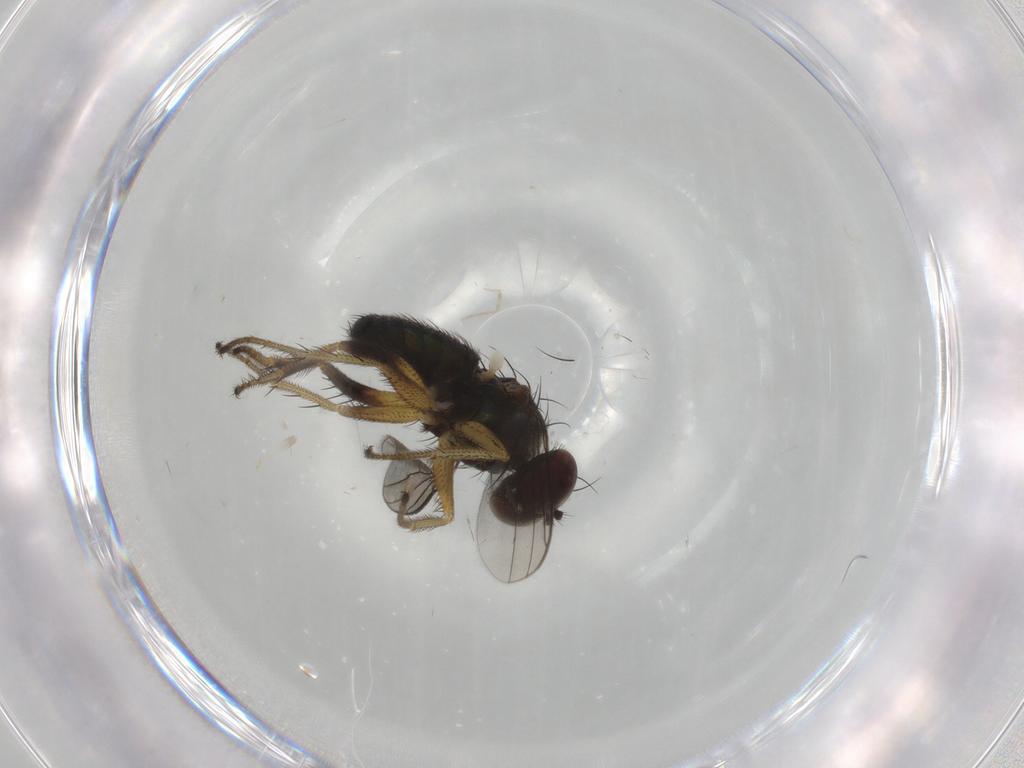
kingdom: Animalia
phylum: Arthropoda
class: Insecta
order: Diptera
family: Dolichopodidae
